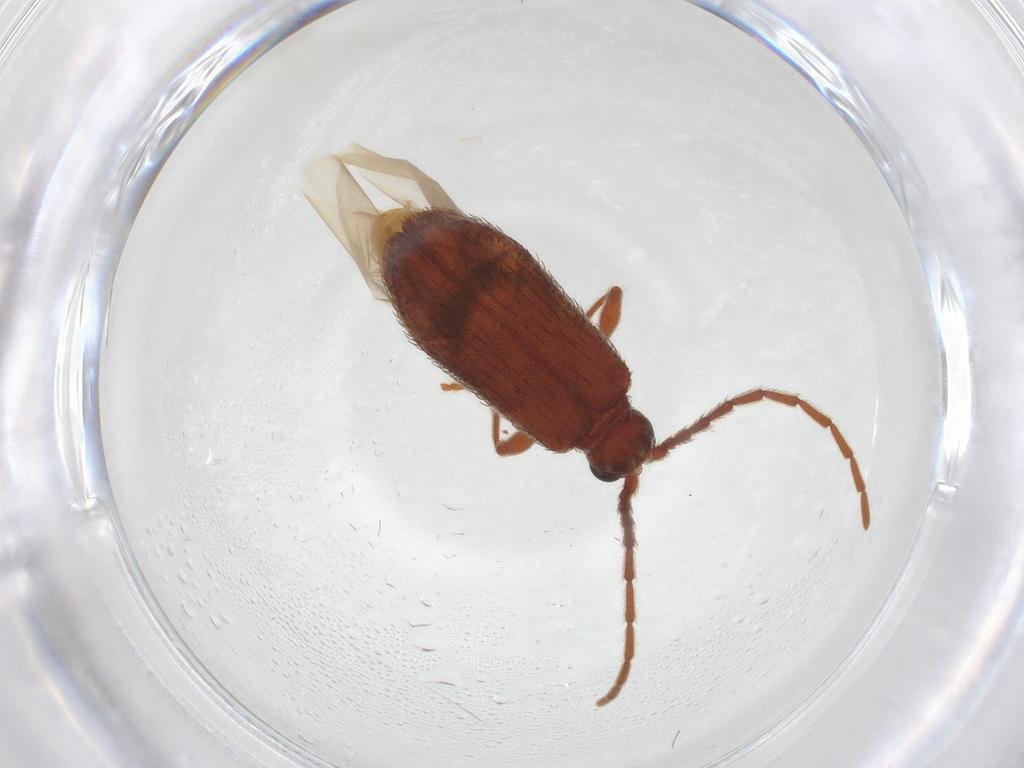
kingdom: Animalia
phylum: Arthropoda
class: Insecta
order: Coleoptera
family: Ptinidae
